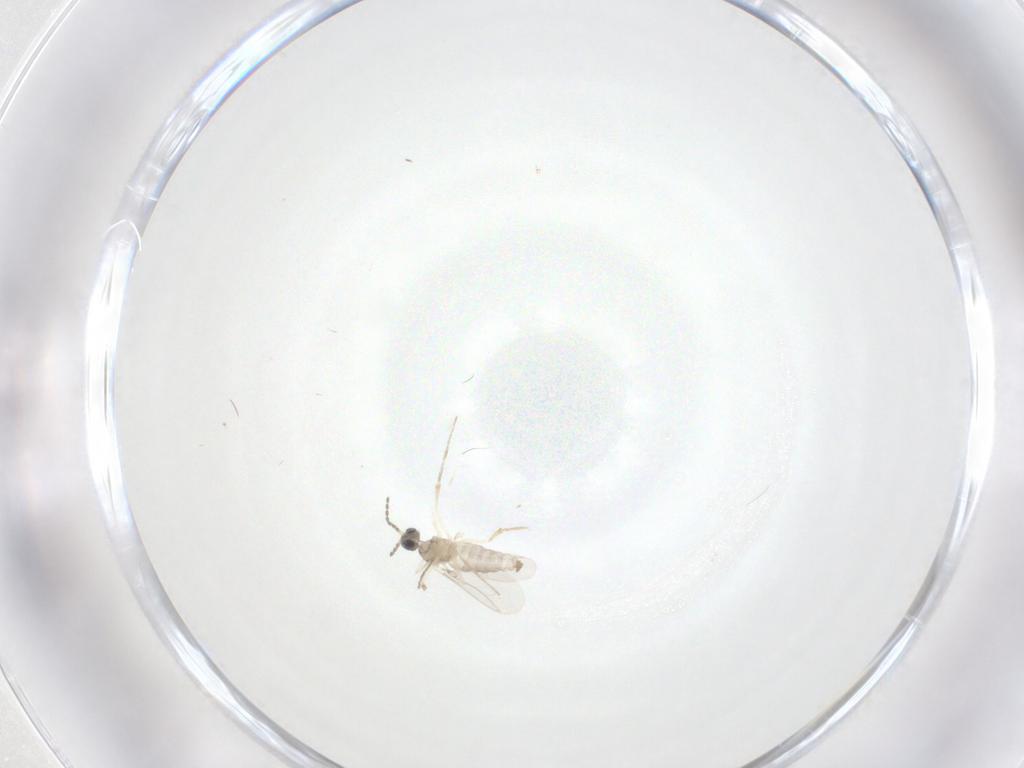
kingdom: Animalia
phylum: Arthropoda
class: Insecta
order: Diptera
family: Cecidomyiidae
